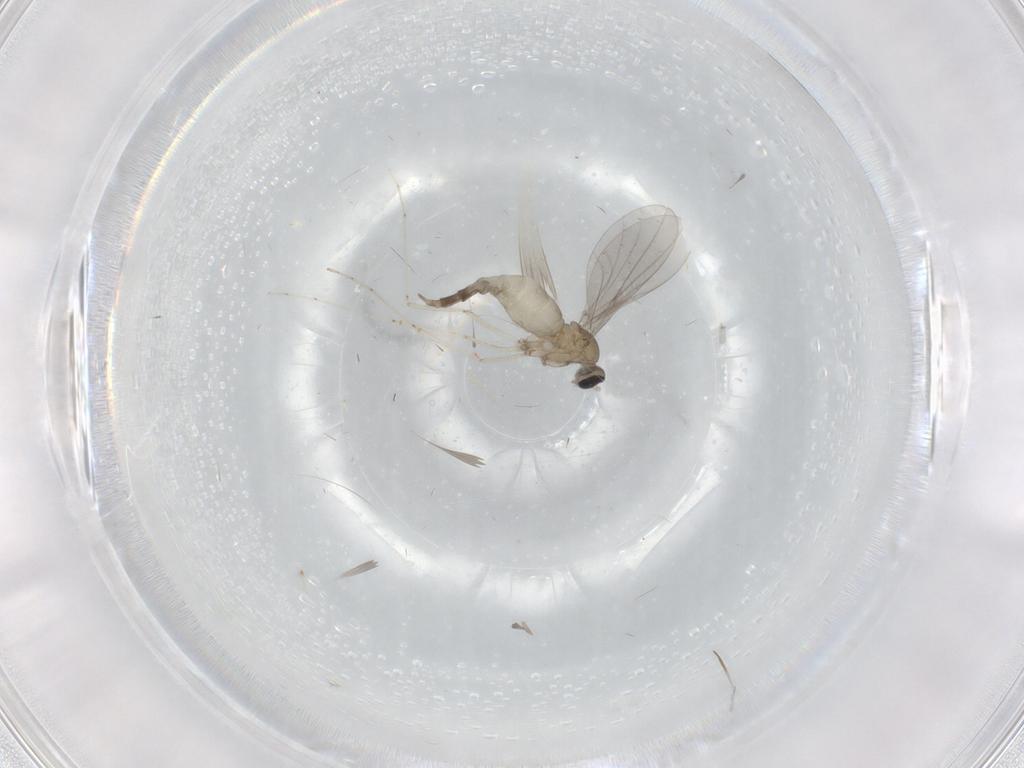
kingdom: Animalia
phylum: Arthropoda
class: Insecta
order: Diptera
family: Cecidomyiidae
